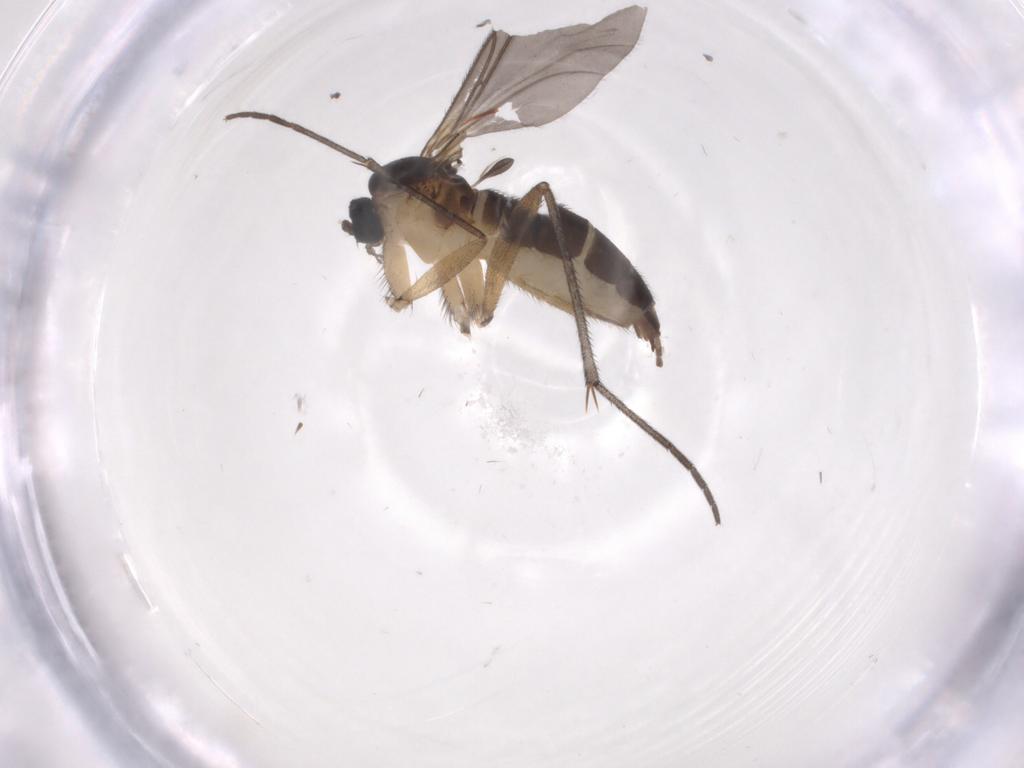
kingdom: Animalia
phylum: Arthropoda
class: Insecta
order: Diptera
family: Sciaridae
